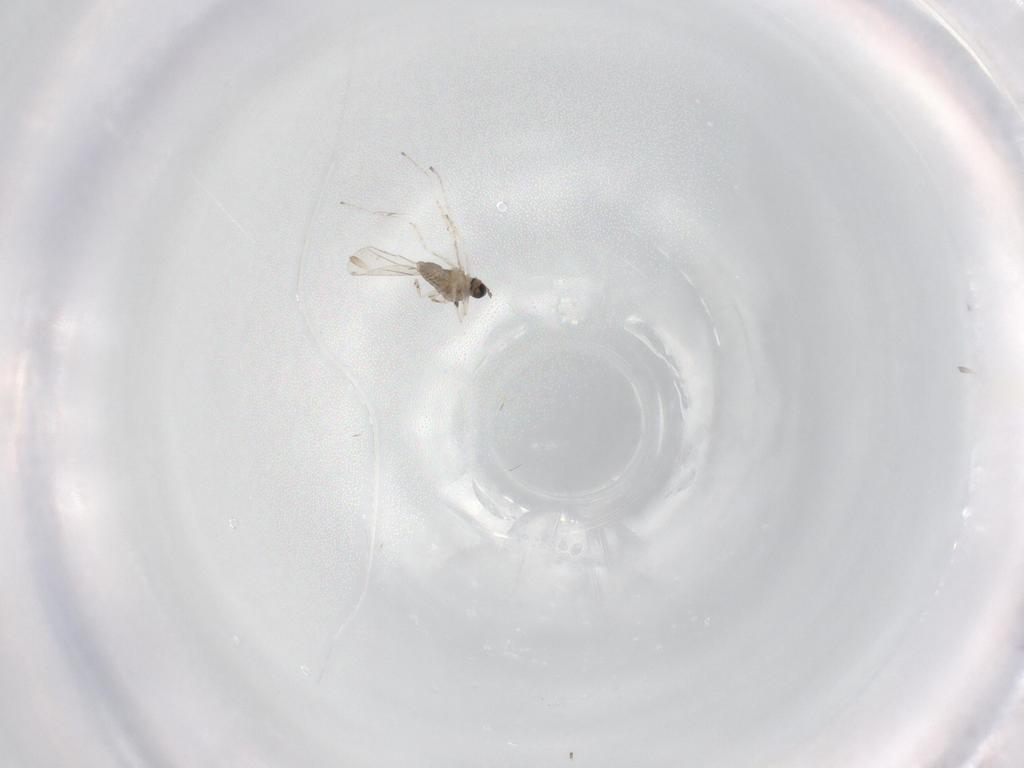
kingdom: Animalia
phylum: Arthropoda
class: Insecta
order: Diptera
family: Cecidomyiidae
